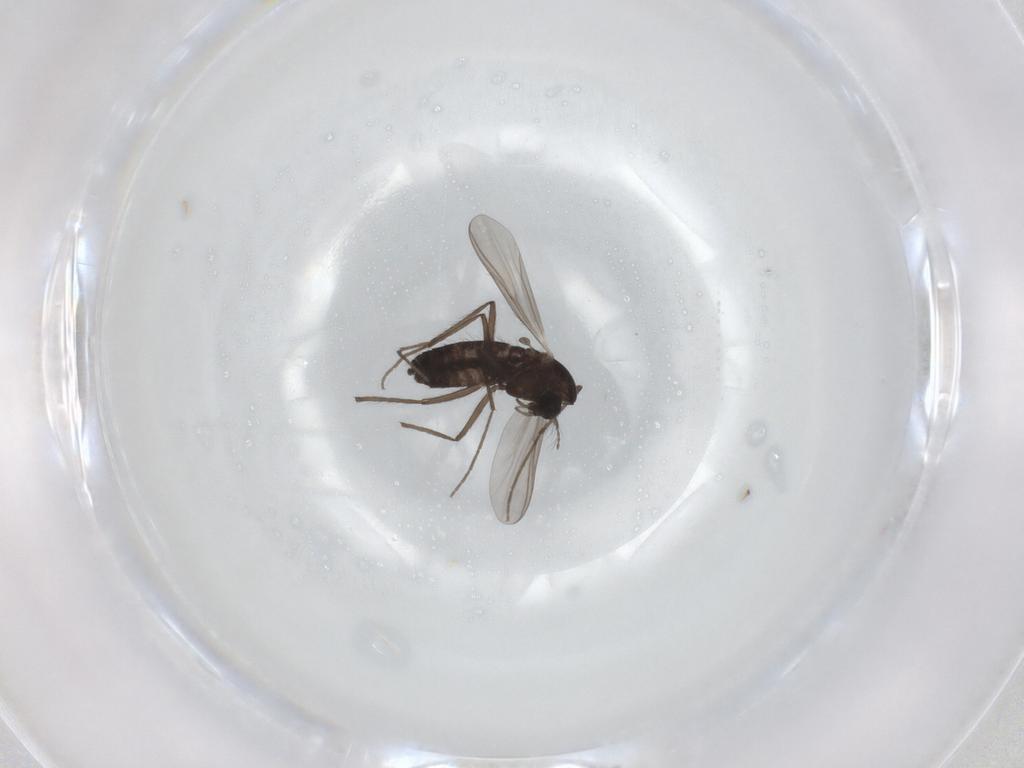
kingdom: Animalia
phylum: Arthropoda
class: Insecta
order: Diptera
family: Chironomidae
